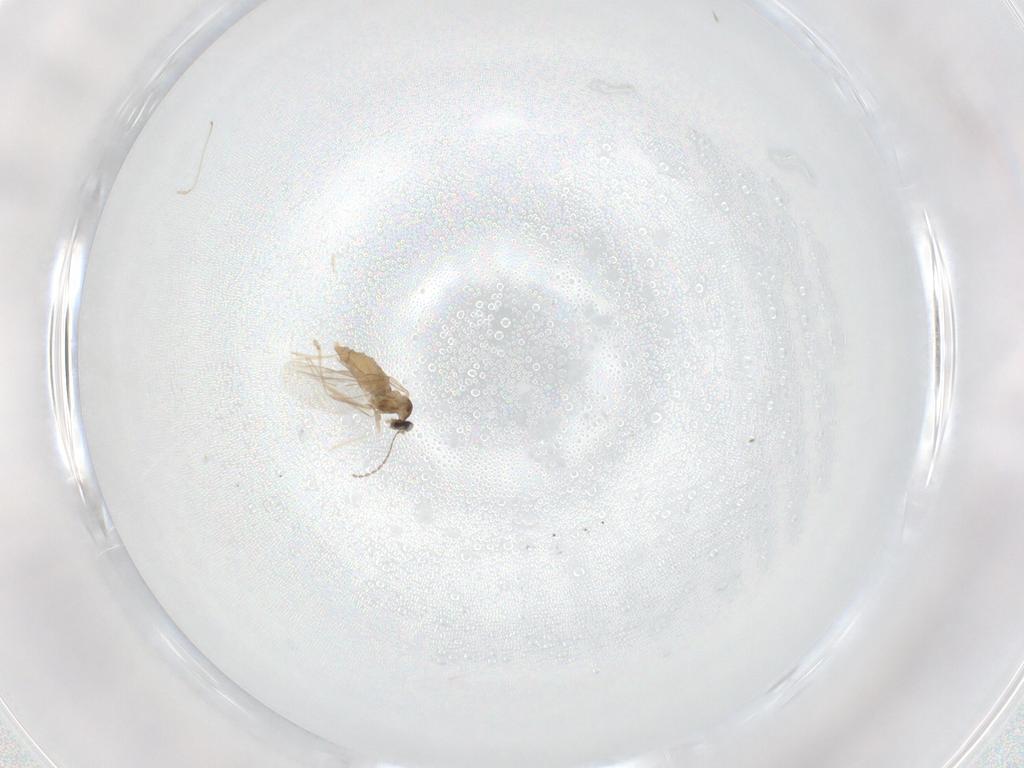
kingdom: Animalia
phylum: Arthropoda
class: Insecta
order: Diptera
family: Cecidomyiidae
